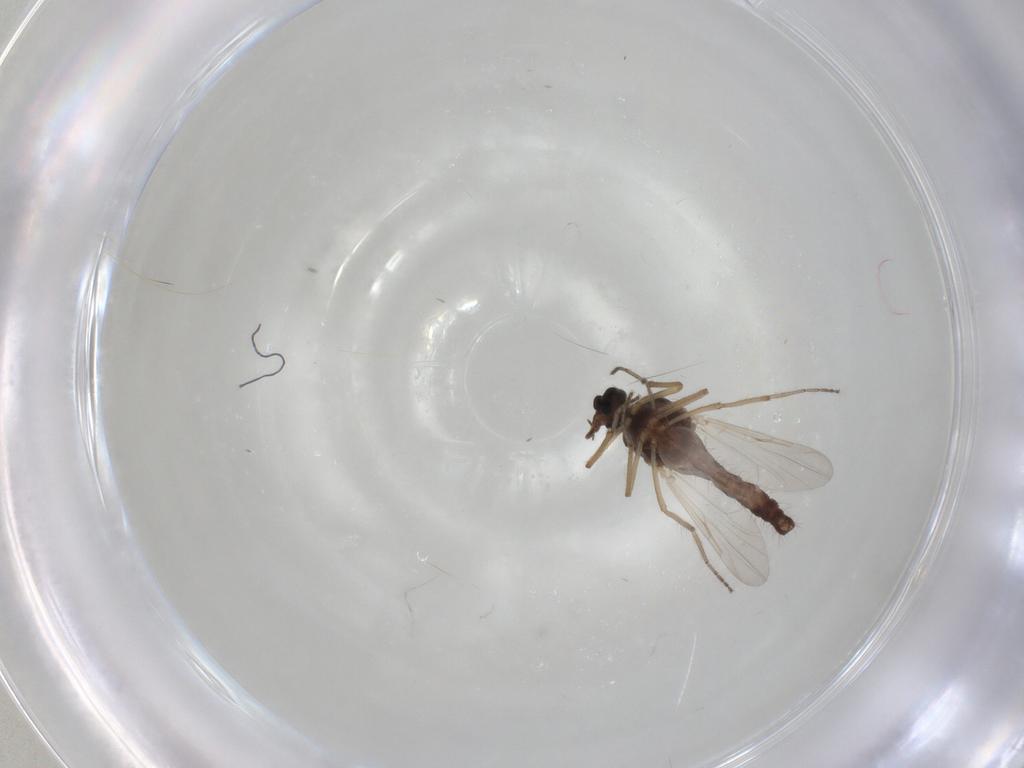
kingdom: Animalia
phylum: Arthropoda
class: Insecta
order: Diptera
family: Ceratopogonidae
